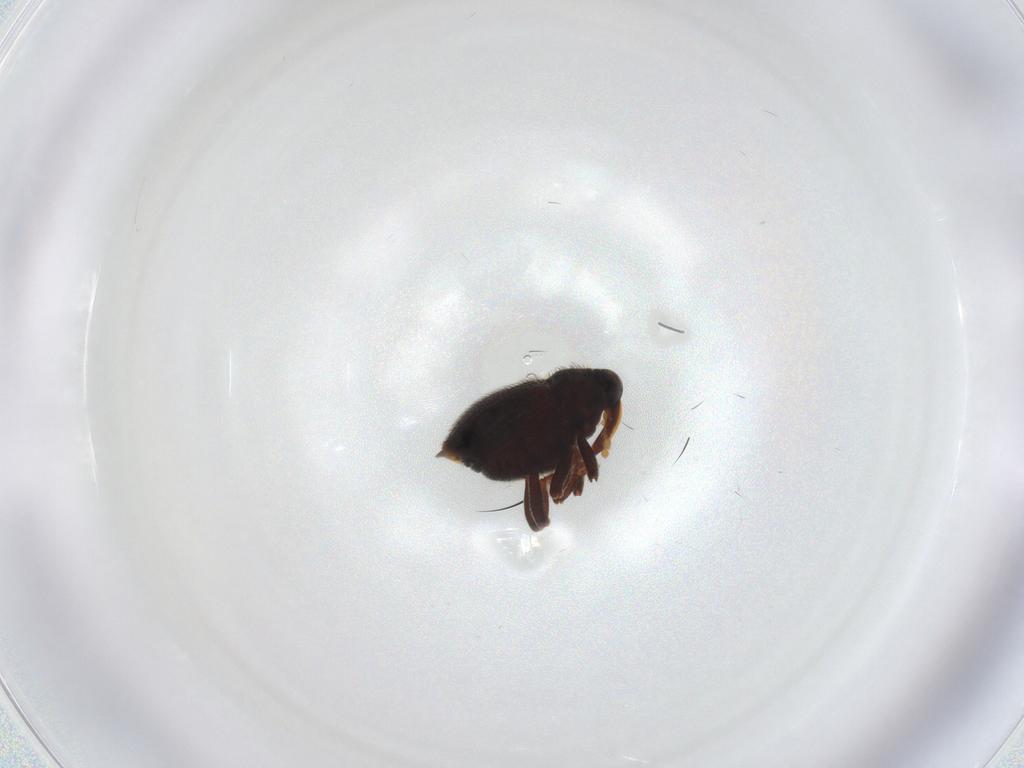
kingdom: Animalia
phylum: Arthropoda
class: Insecta
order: Coleoptera
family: Curculionidae
